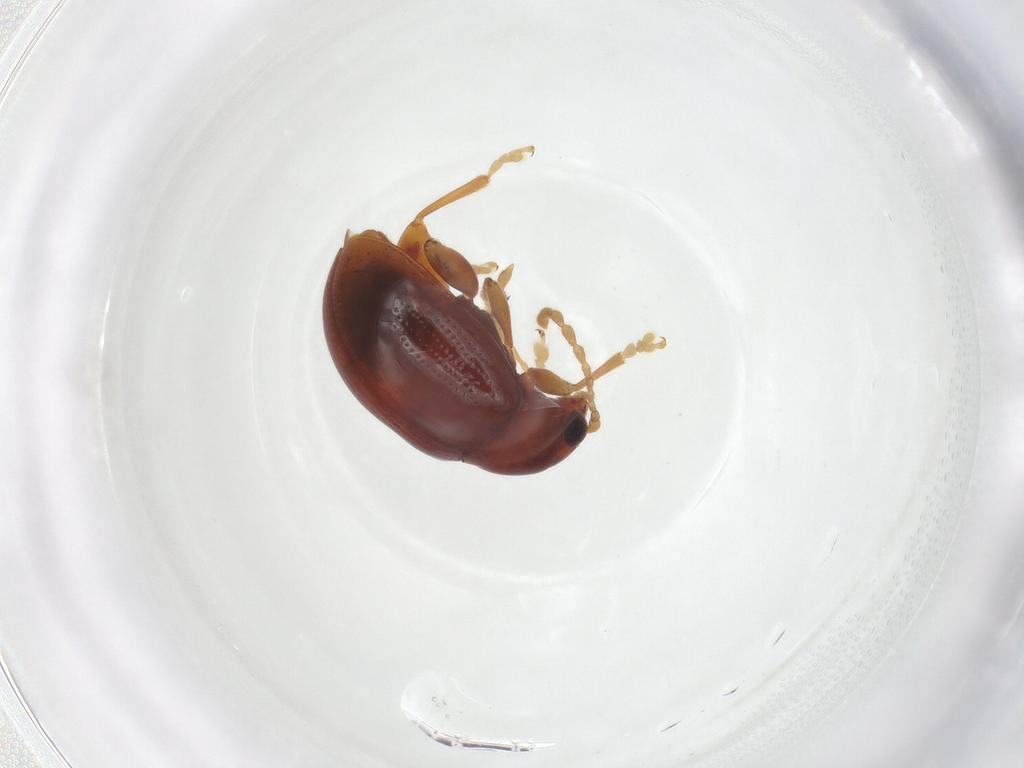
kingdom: Animalia
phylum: Arthropoda
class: Insecta
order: Coleoptera
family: Chrysomelidae
